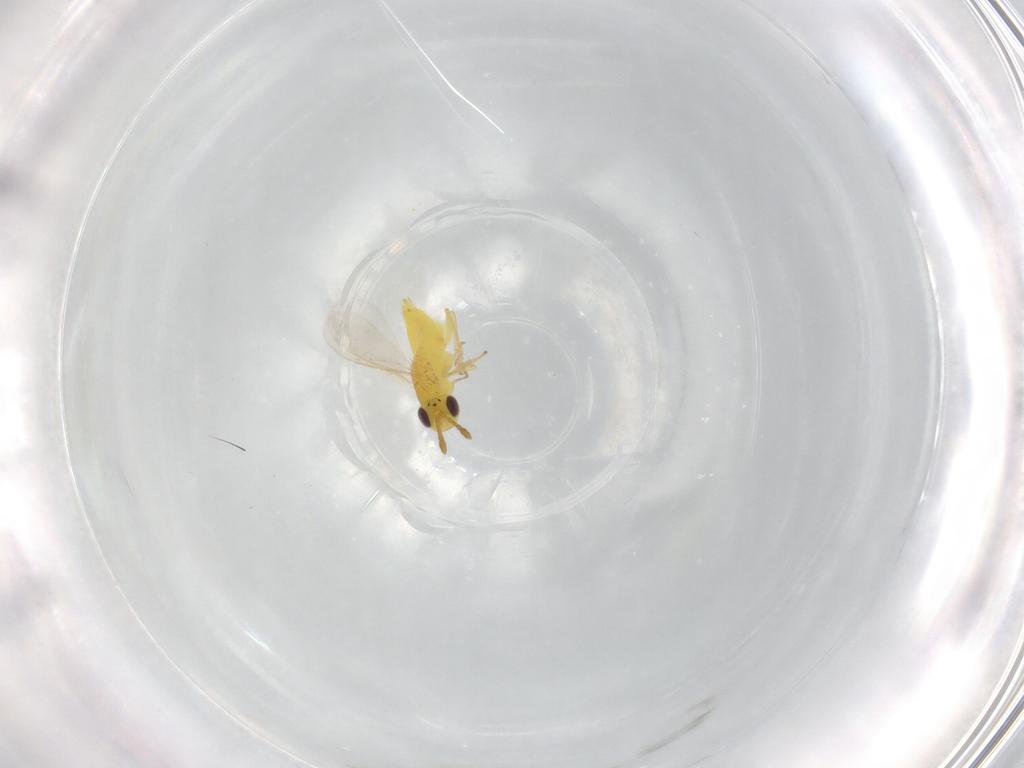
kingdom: Animalia
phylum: Arthropoda
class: Insecta
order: Hymenoptera
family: Aphelinidae
